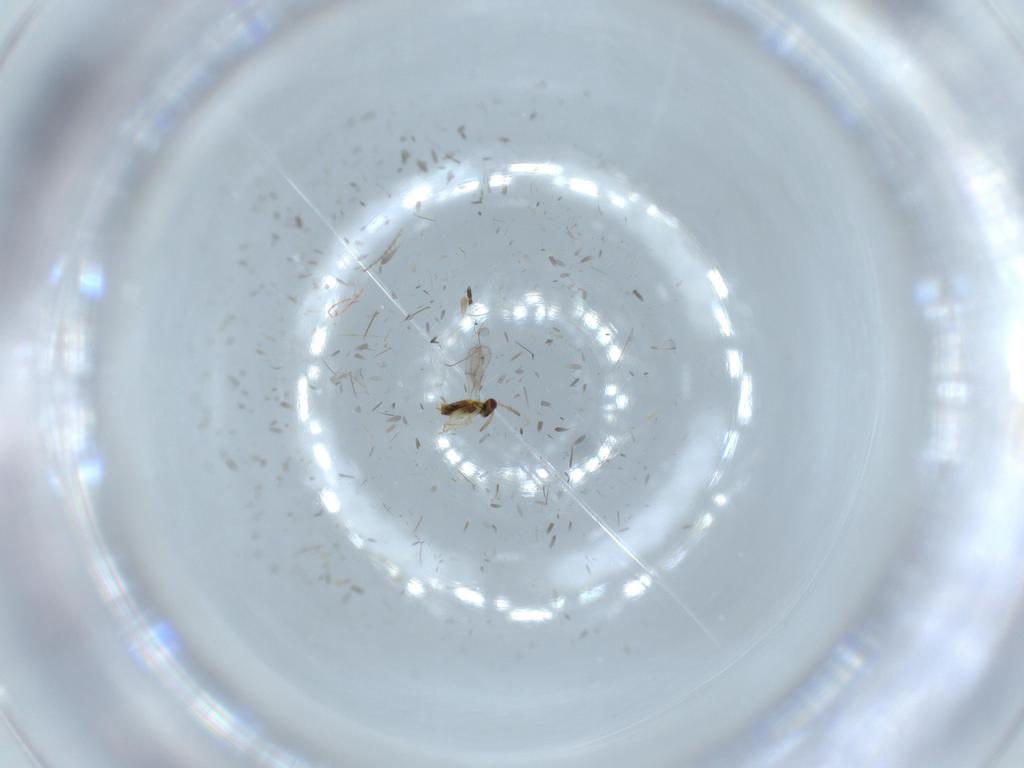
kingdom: Animalia
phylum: Arthropoda
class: Insecta
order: Hymenoptera
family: Aphelinidae
